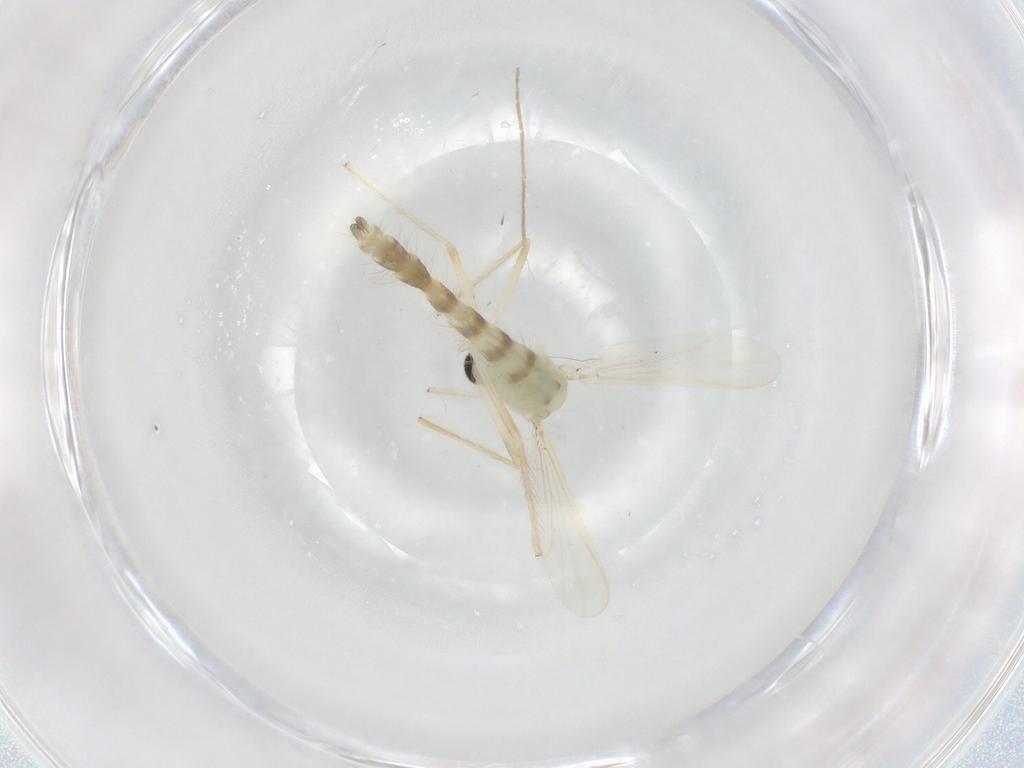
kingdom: Animalia
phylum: Arthropoda
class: Insecta
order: Diptera
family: Chironomidae
